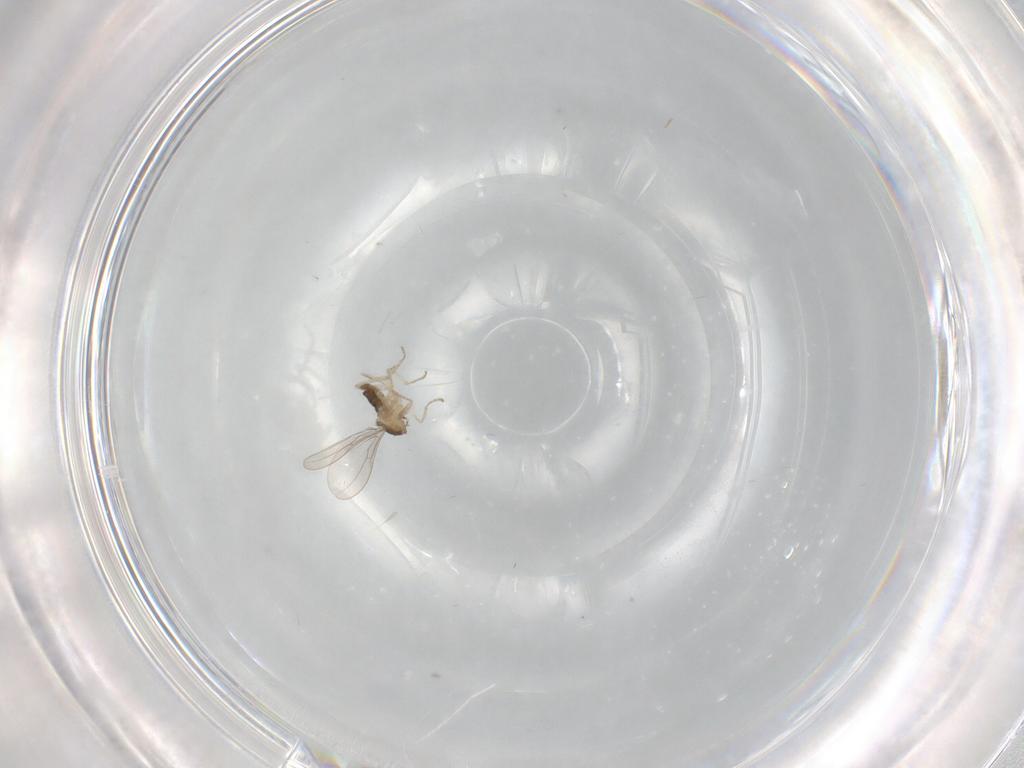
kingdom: Animalia
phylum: Arthropoda
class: Insecta
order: Diptera
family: Cecidomyiidae
